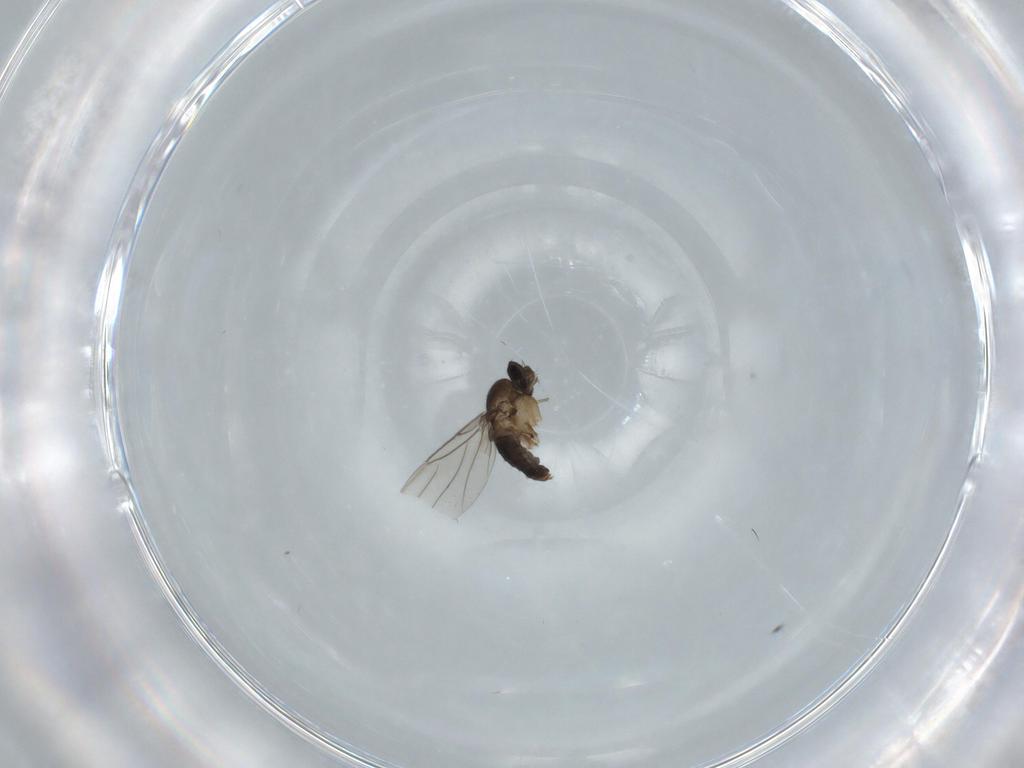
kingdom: Animalia
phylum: Arthropoda
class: Insecta
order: Diptera
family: Phoridae
